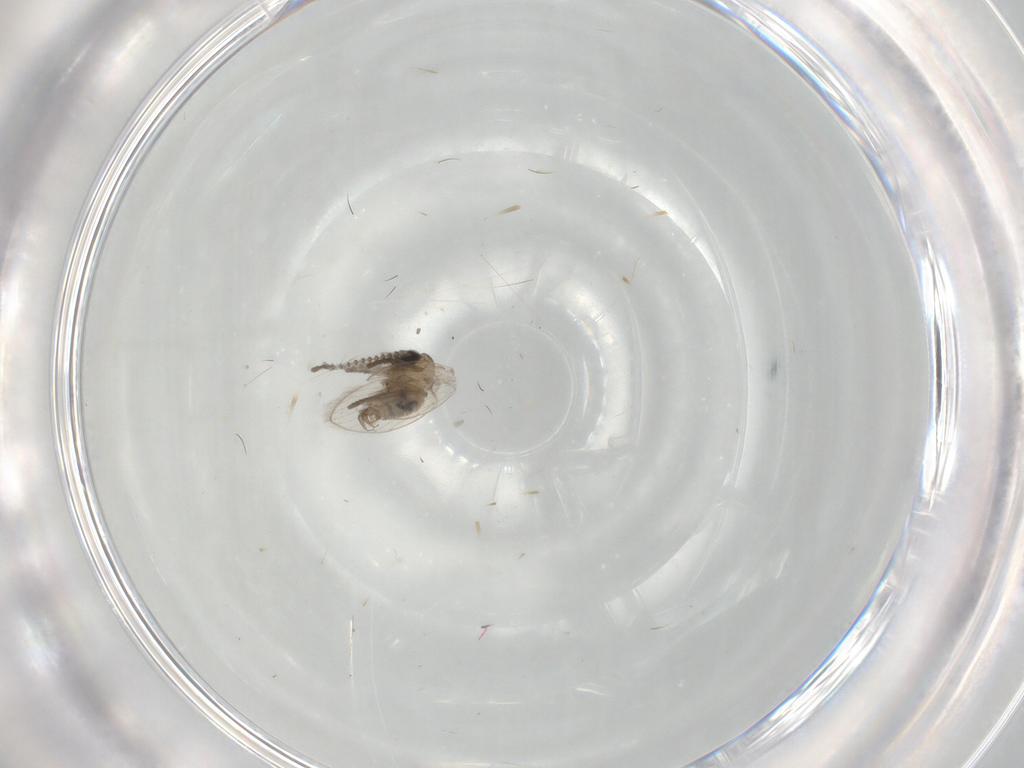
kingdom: Animalia
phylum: Arthropoda
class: Insecta
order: Diptera
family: Psychodidae
